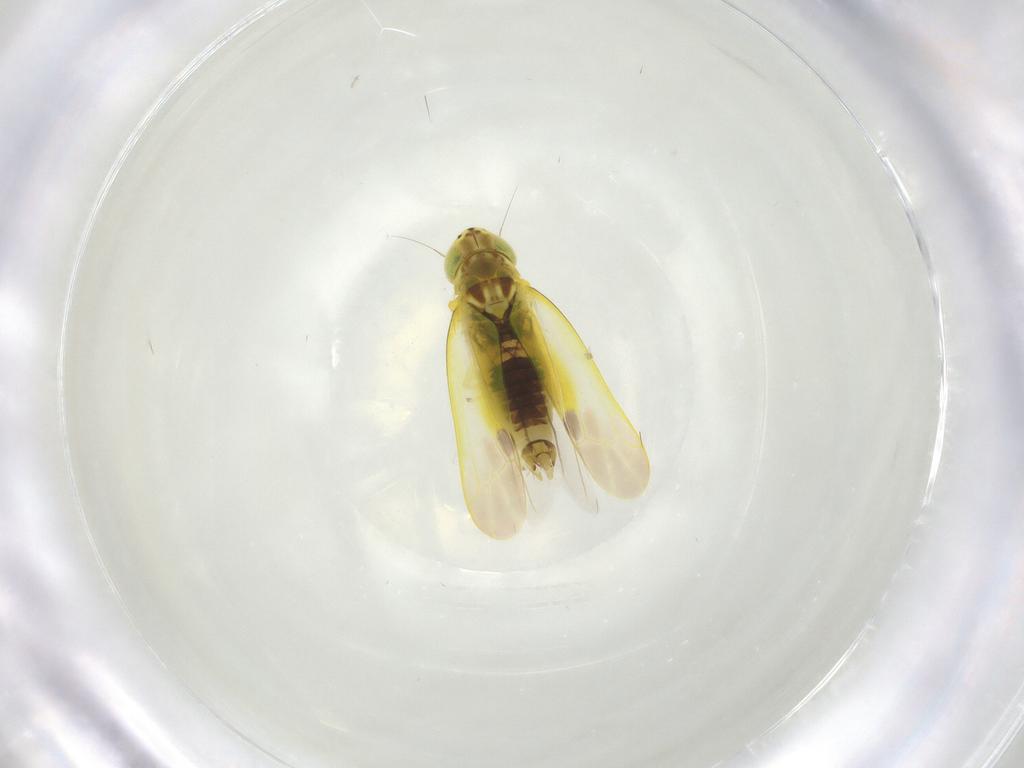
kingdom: Animalia
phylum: Arthropoda
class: Insecta
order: Hemiptera
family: Cicadellidae
